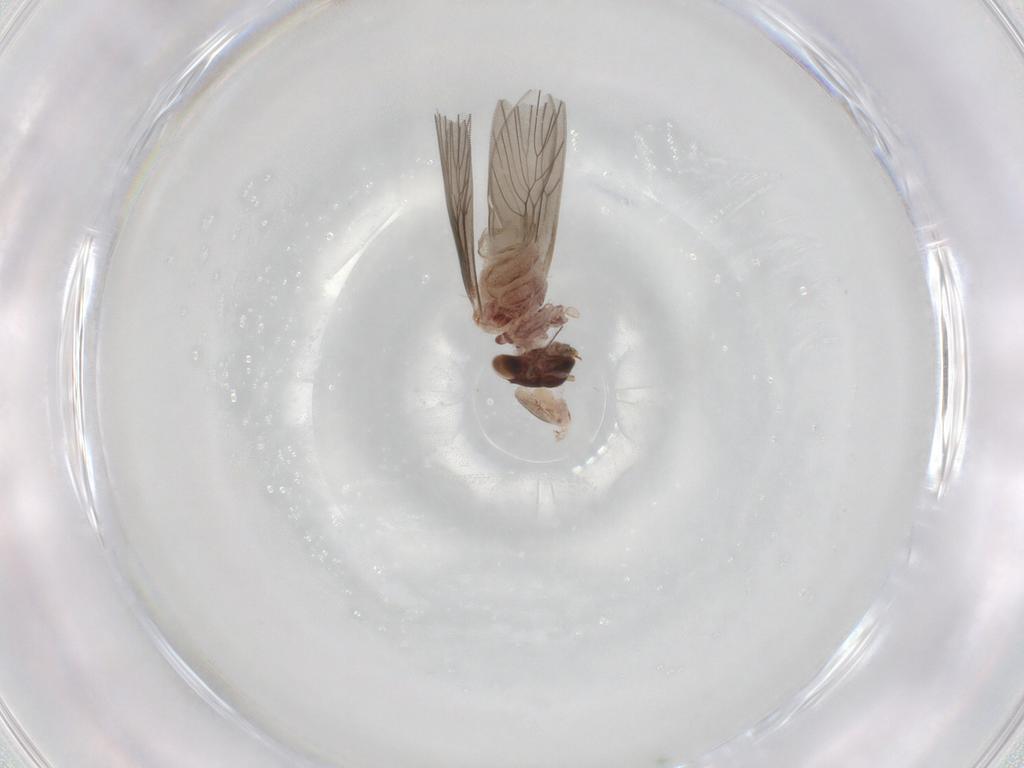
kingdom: Animalia
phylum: Arthropoda
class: Insecta
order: Psocodea
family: Lepidopsocidae
